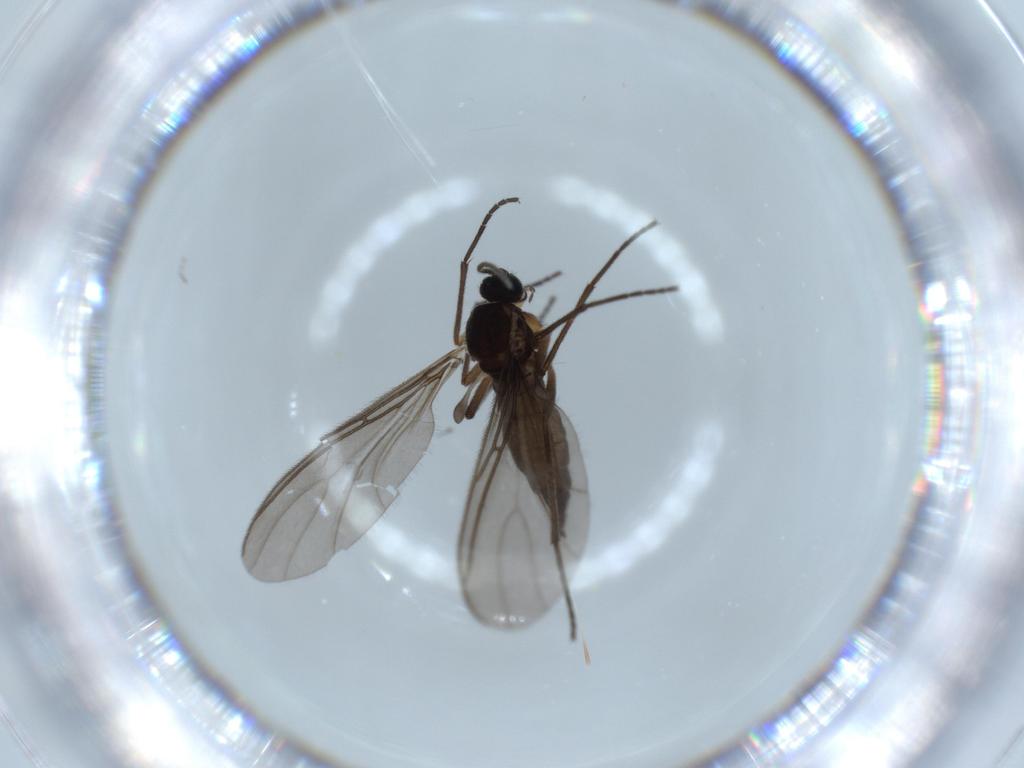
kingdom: Animalia
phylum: Arthropoda
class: Insecta
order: Diptera
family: Sciaridae
